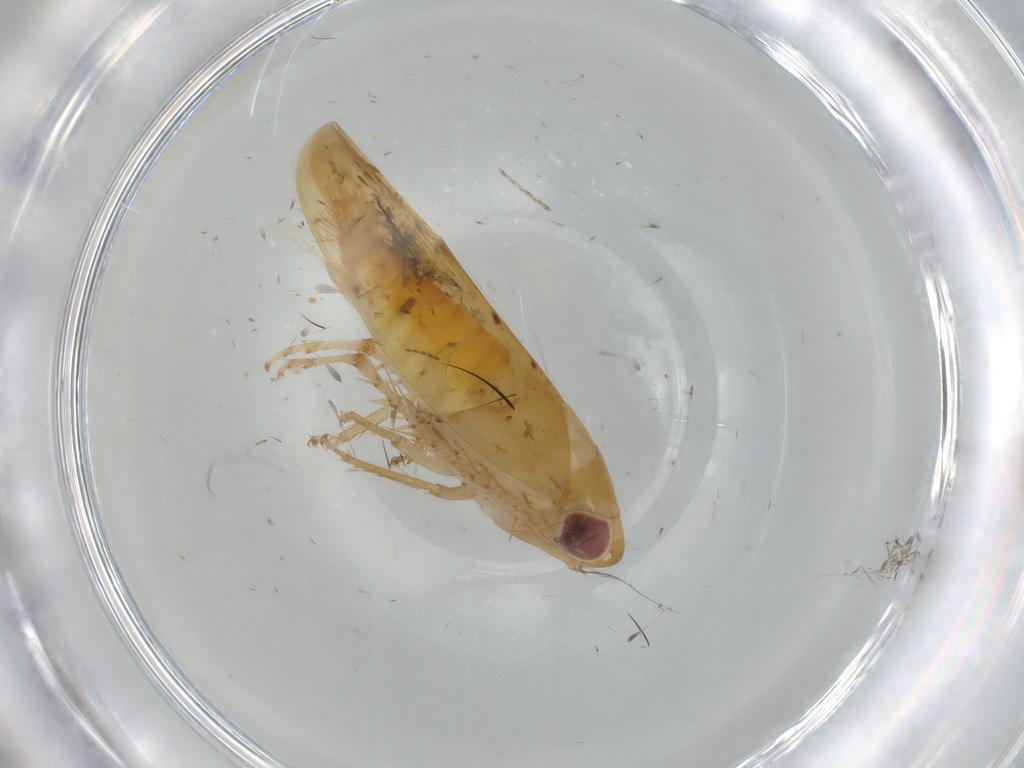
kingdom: Animalia
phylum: Arthropoda
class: Insecta
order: Hemiptera
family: Cicadellidae
